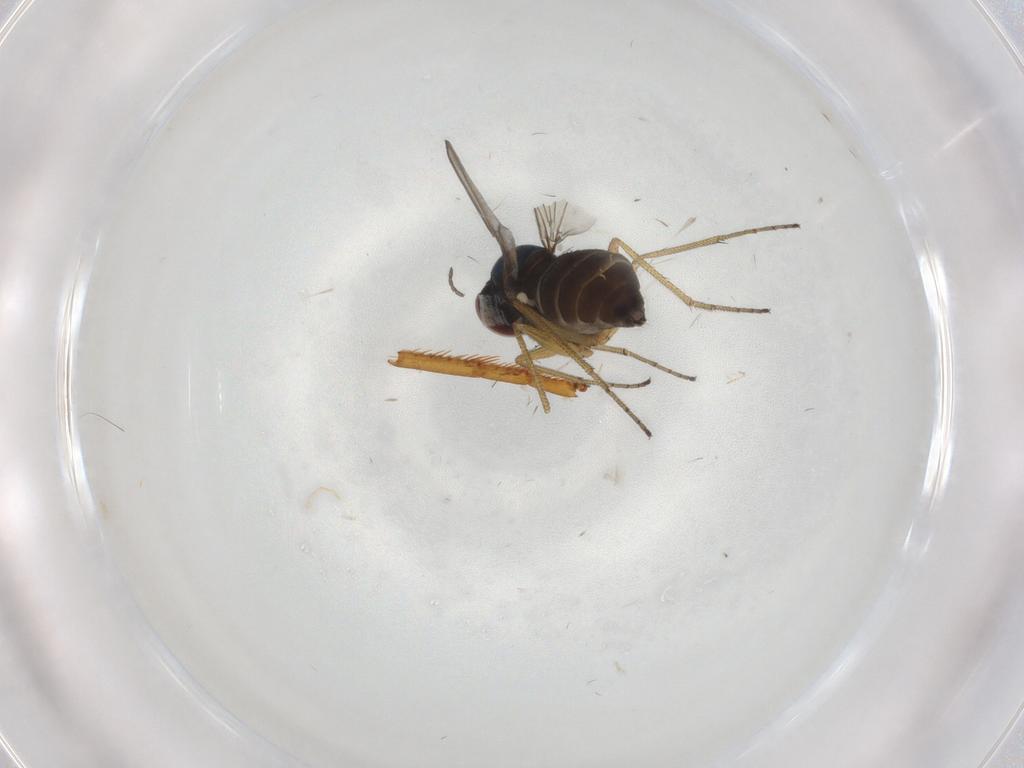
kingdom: Animalia
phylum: Arthropoda
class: Insecta
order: Diptera
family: Dolichopodidae
